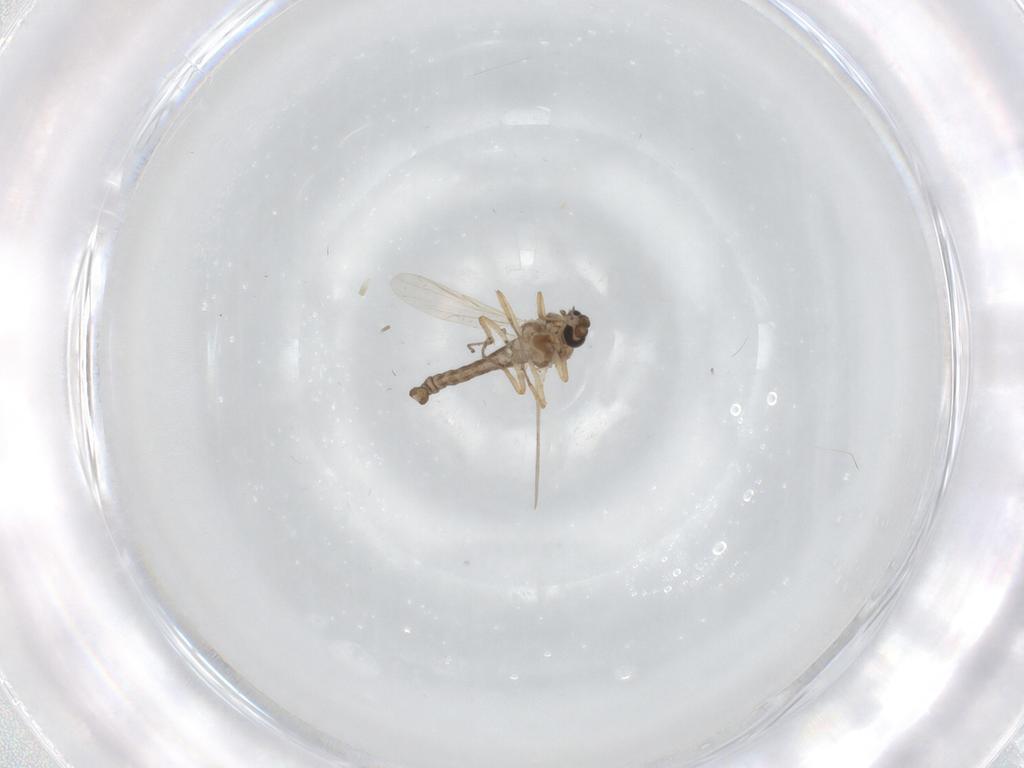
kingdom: Animalia
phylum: Arthropoda
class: Insecta
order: Diptera
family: Ceratopogonidae
